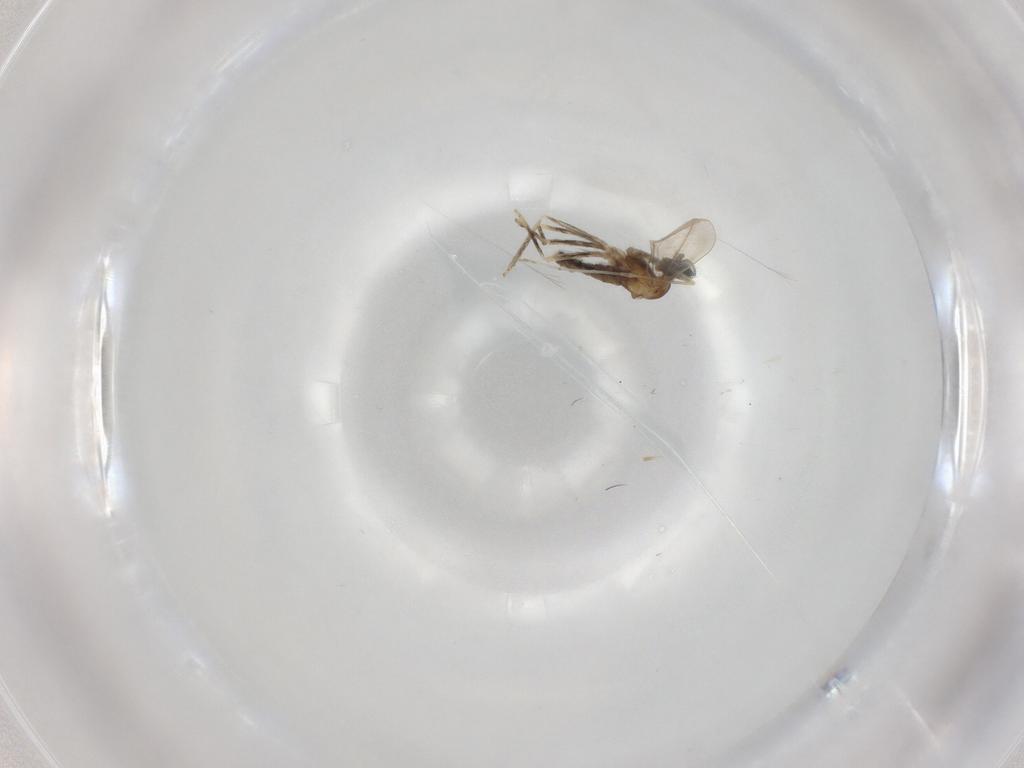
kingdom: Animalia
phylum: Arthropoda
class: Insecta
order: Diptera
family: Cecidomyiidae
